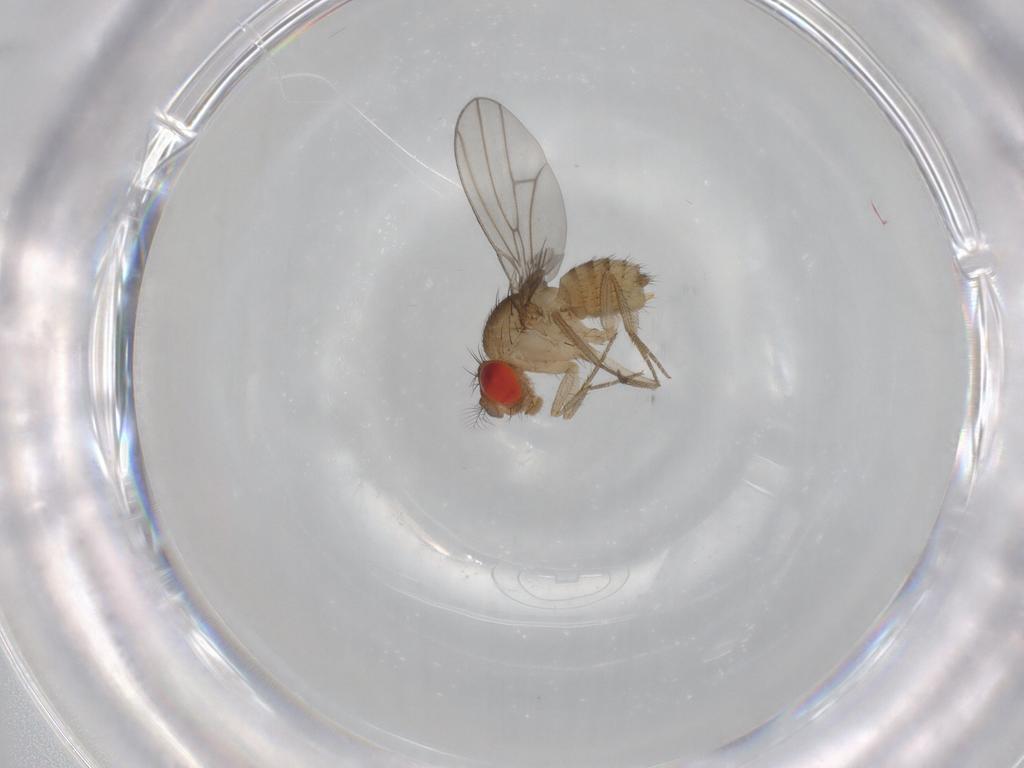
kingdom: Animalia
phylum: Arthropoda
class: Insecta
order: Diptera
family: Drosophilidae
